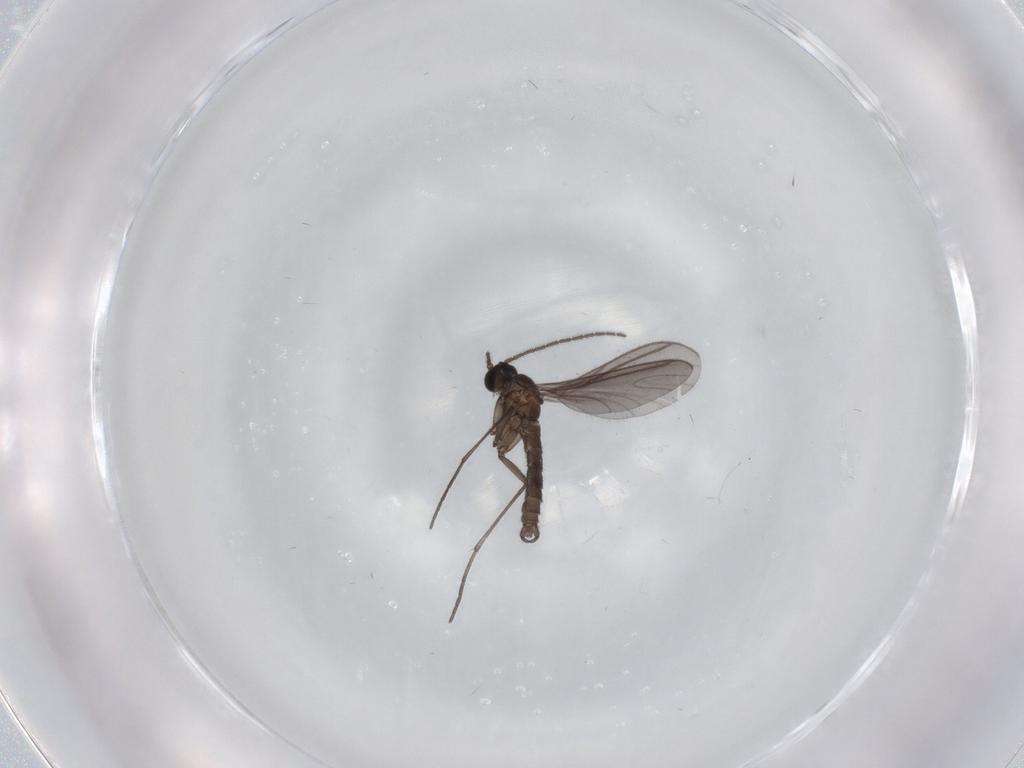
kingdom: Animalia
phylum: Arthropoda
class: Insecta
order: Diptera
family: Sciaridae
